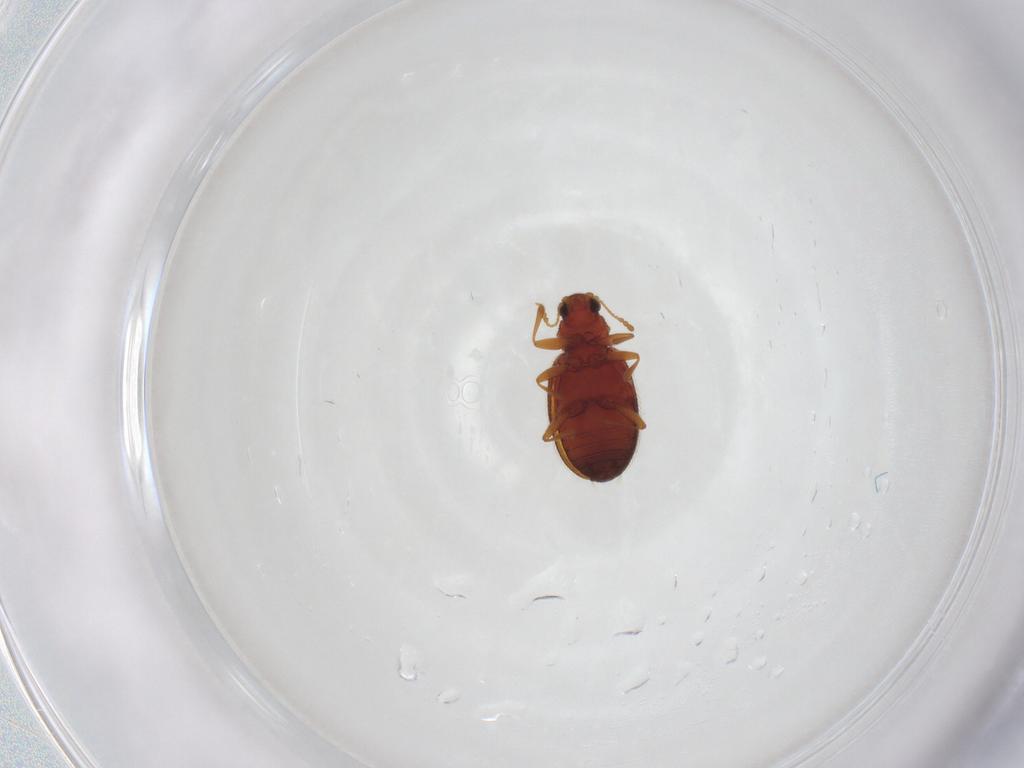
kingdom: Animalia
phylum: Arthropoda
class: Insecta
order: Coleoptera
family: Latridiidae
